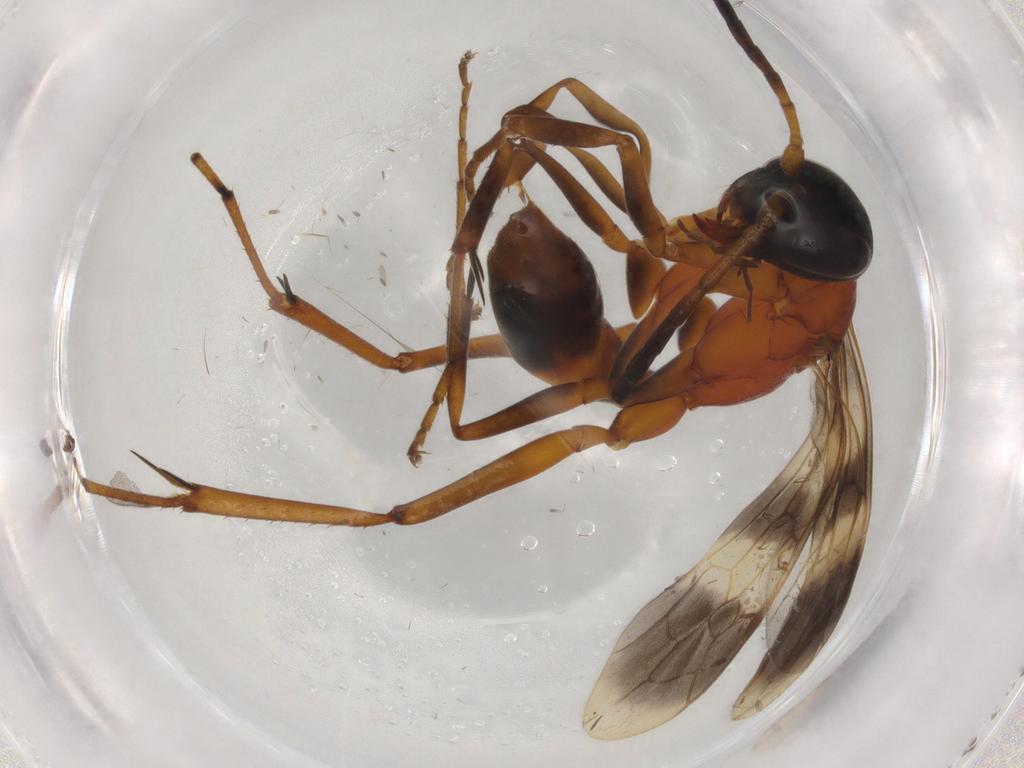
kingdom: Animalia
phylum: Arthropoda
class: Insecta
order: Hymenoptera
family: Pompilidae
